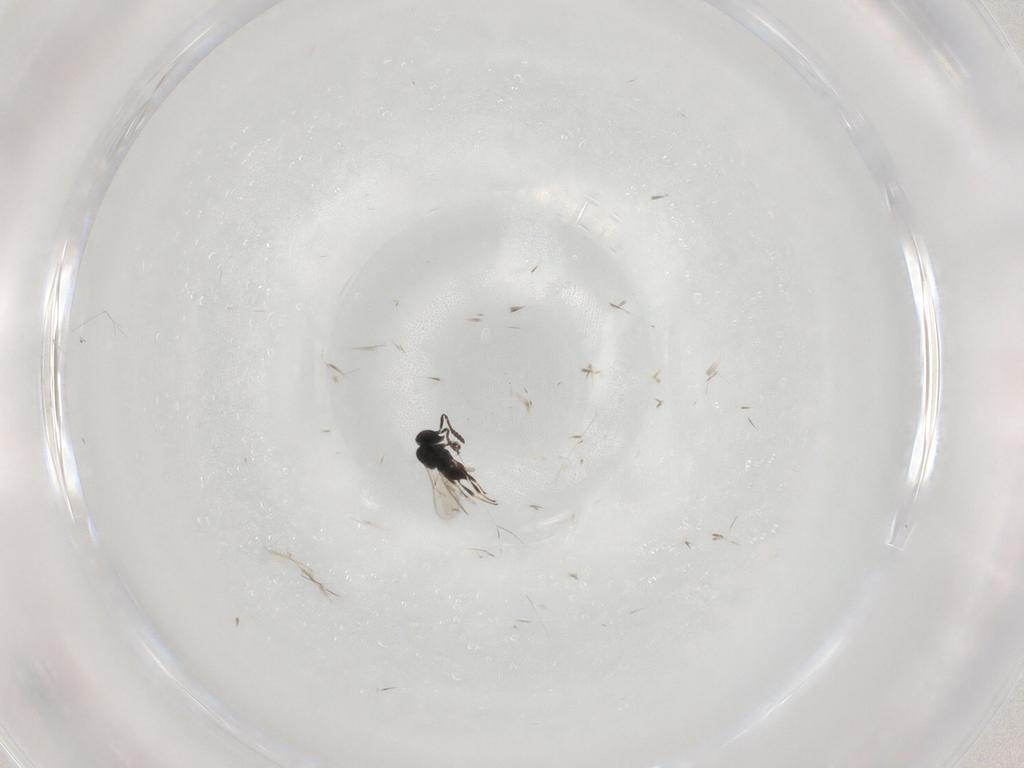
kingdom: Animalia
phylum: Arthropoda
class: Insecta
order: Hymenoptera
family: Scelionidae
